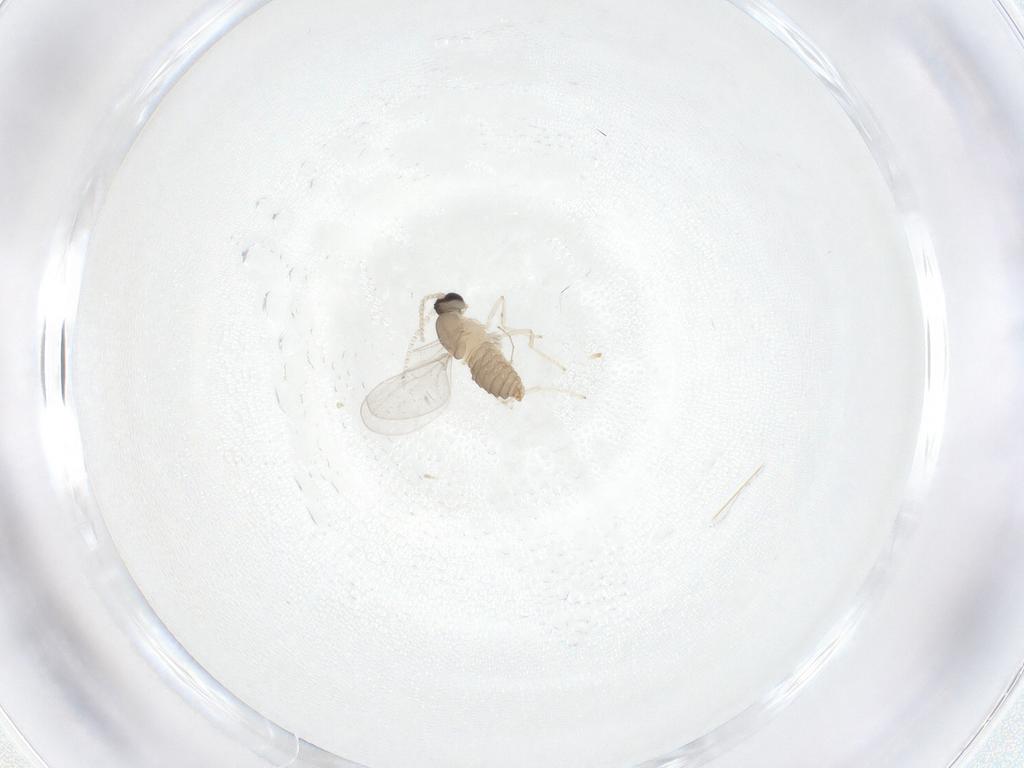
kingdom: Animalia
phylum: Arthropoda
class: Insecta
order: Diptera
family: Cecidomyiidae
